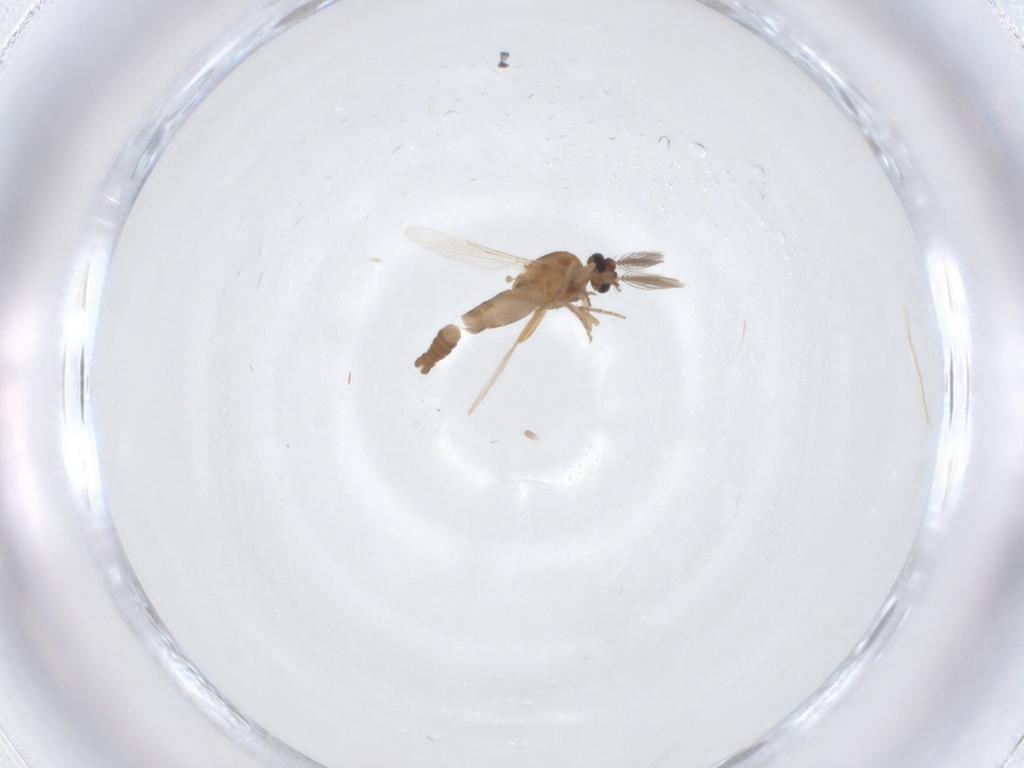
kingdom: Animalia
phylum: Arthropoda
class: Insecta
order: Diptera
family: Ceratopogonidae
